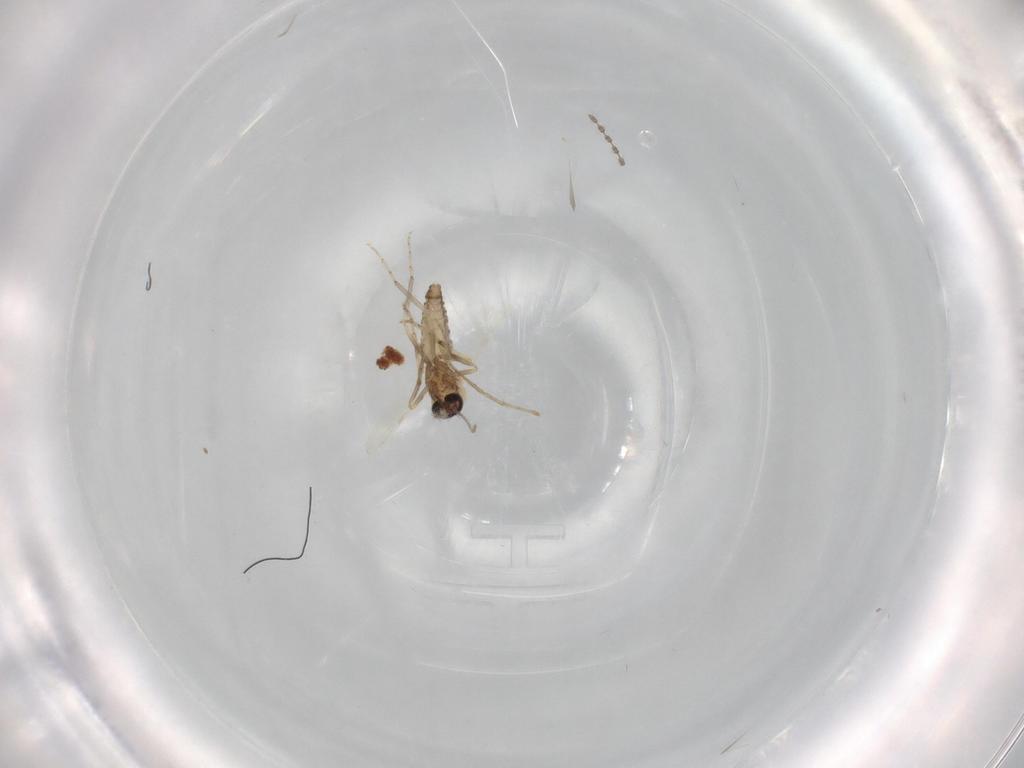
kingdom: Animalia
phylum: Arthropoda
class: Insecta
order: Diptera
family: Ceratopogonidae
